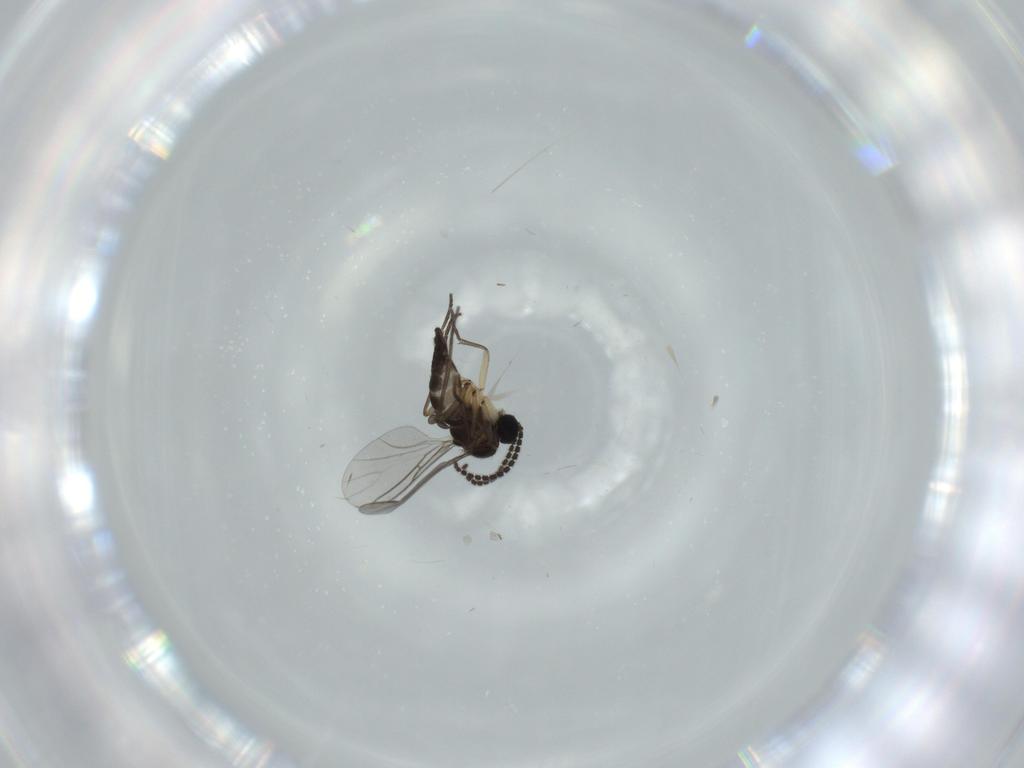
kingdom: Animalia
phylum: Arthropoda
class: Insecta
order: Diptera
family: Sciaridae
